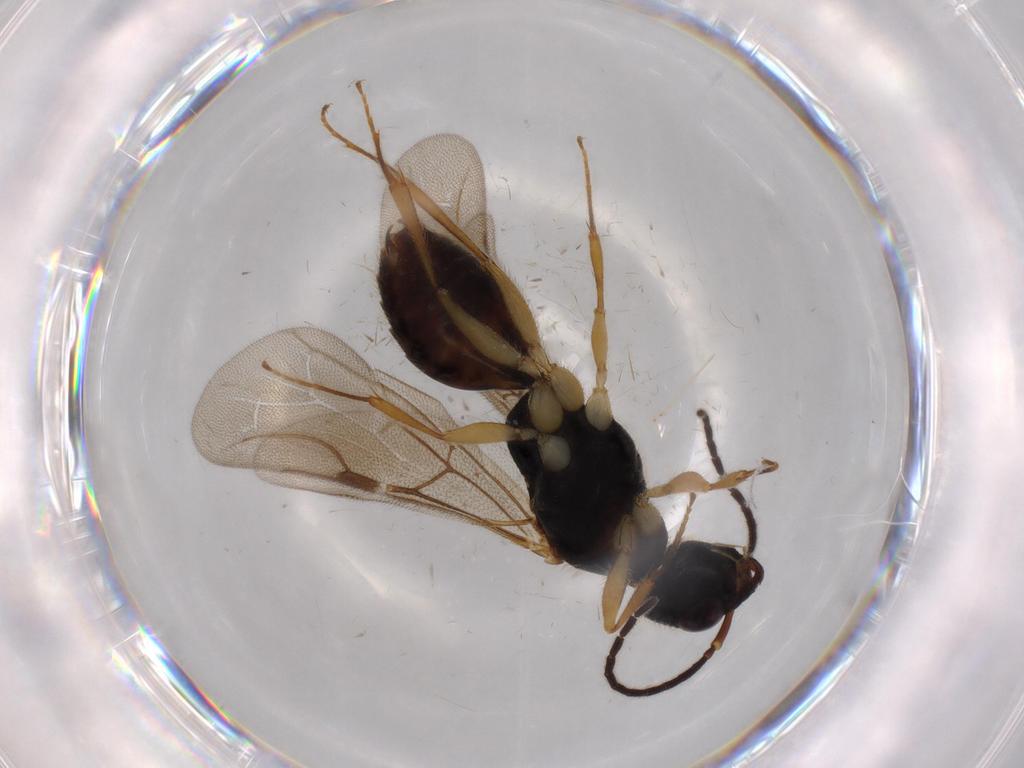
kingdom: Animalia
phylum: Arthropoda
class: Insecta
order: Hymenoptera
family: Bethylidae
